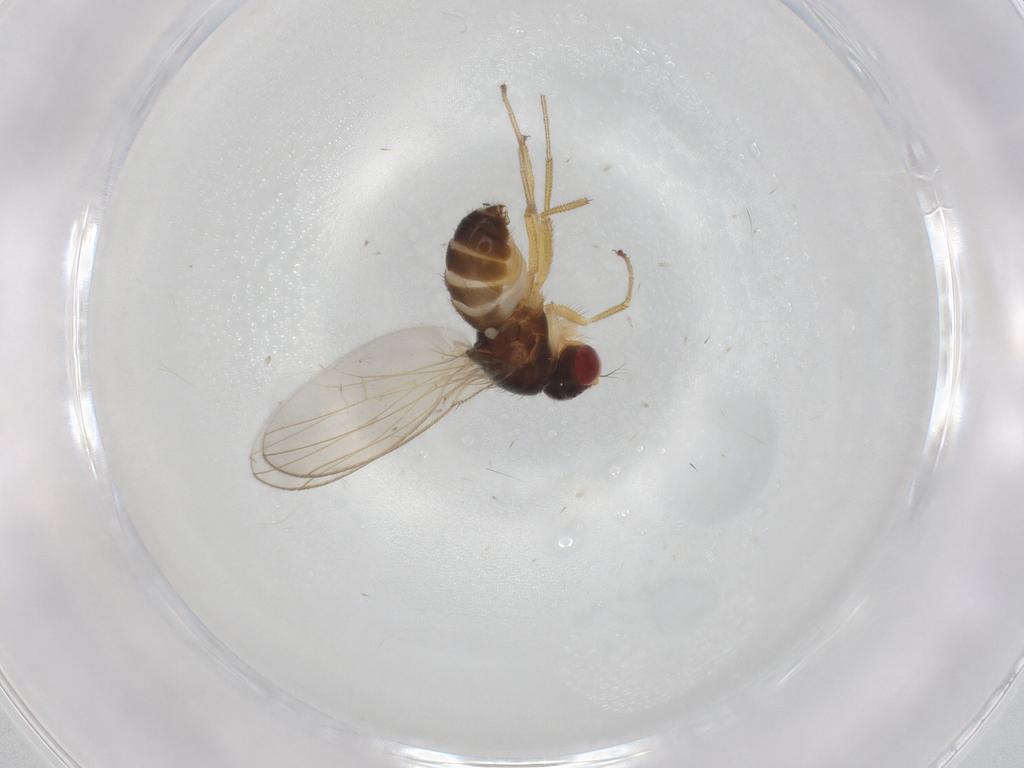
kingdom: Animalia
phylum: Arthropoda
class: Insecta
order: Diptera
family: Drosophilidae
